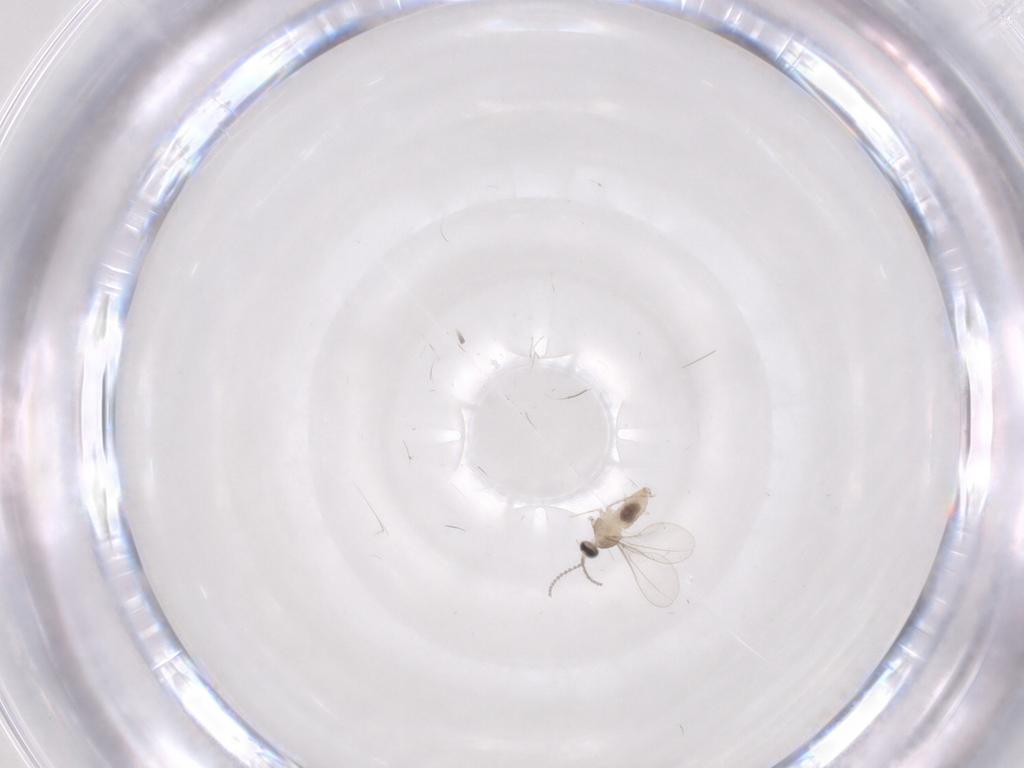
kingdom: Animalia
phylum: Arthropoda
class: Insecta
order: Diptera
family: Cecidomyiidae
